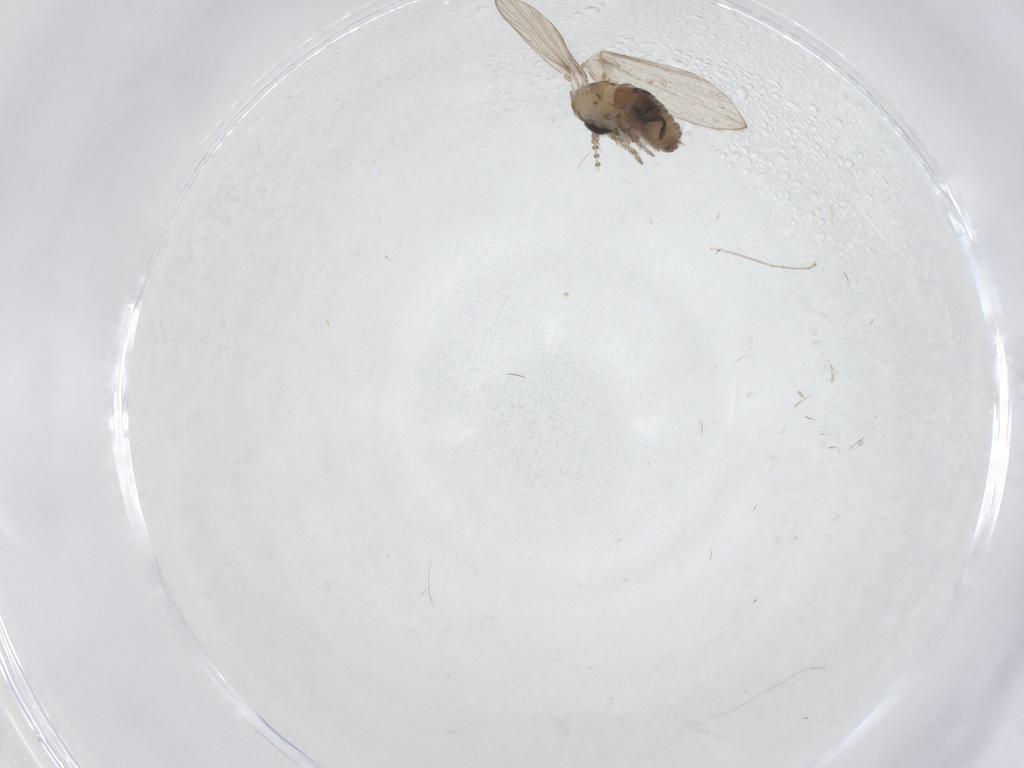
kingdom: Animalia
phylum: Arthropoda
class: Insecta
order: Diptera
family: Psychodidae
